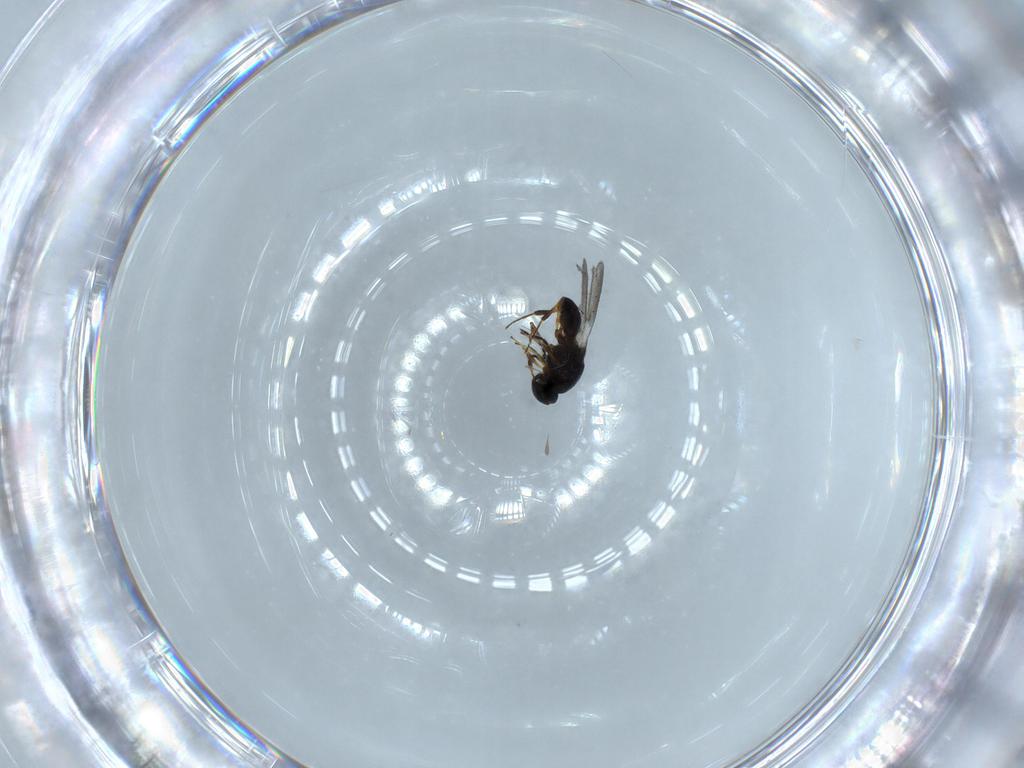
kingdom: Animalia
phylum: Arthropoda
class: Insecta
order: Hymenoptera
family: Platygastridae
